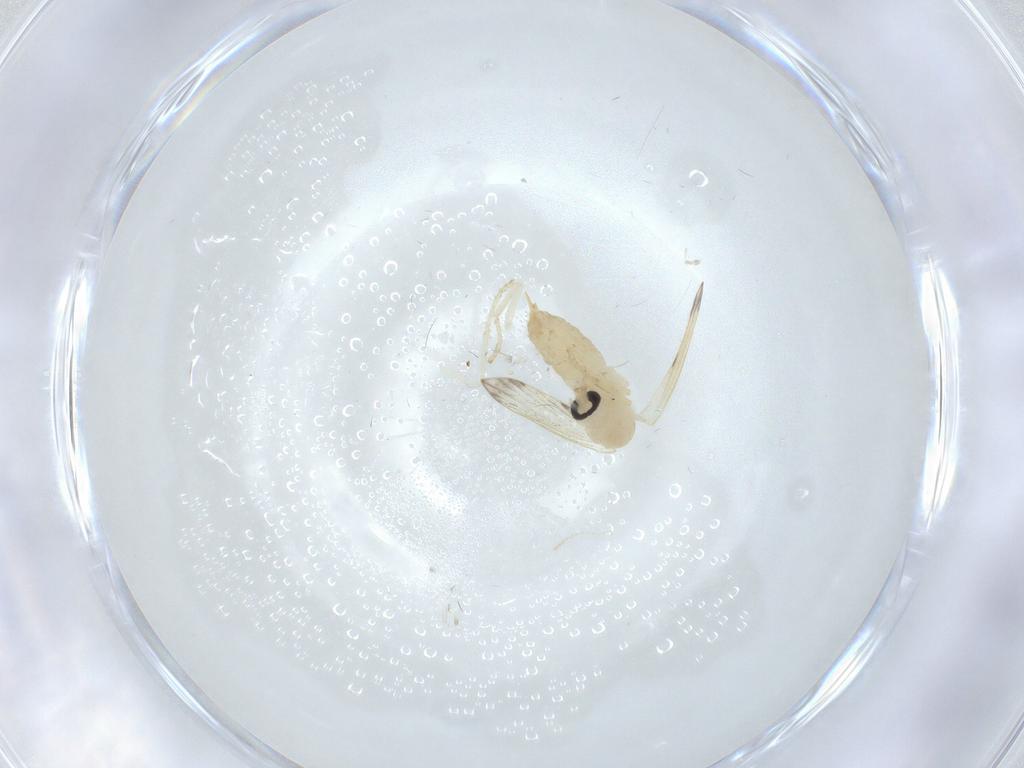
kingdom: Animalia
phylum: Arthropoda
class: Insecta
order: Diptera
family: Psychodidae
